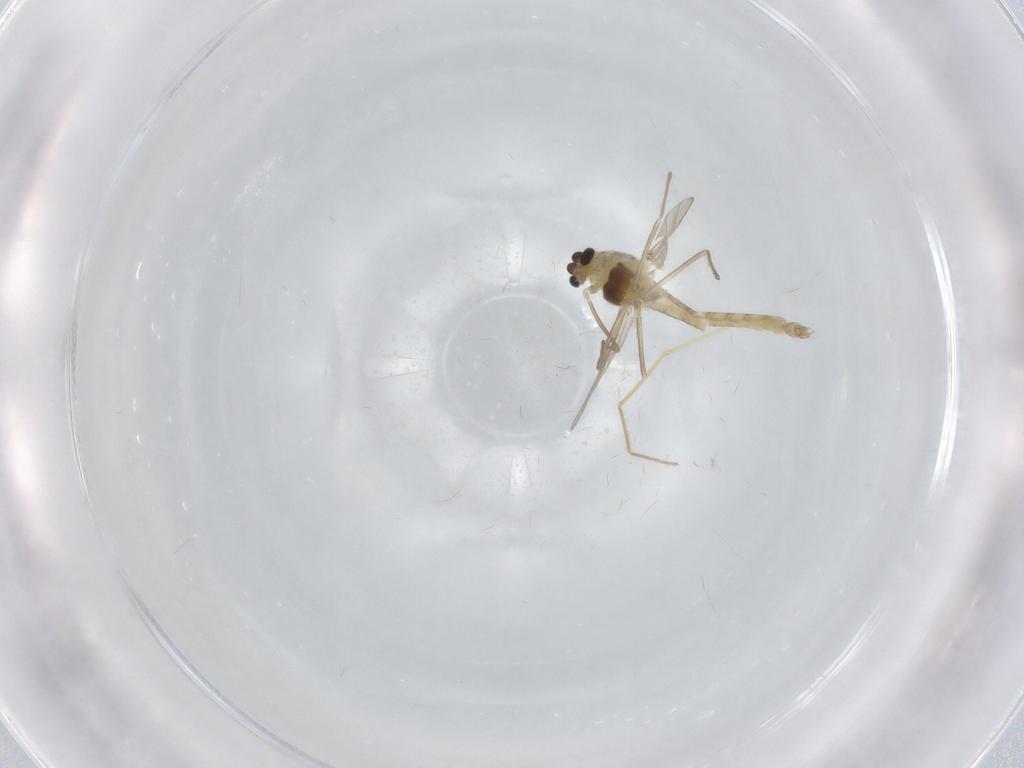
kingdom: Animalia
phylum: Arthropoda
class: Insecta
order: Diptera
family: Chironomidae
